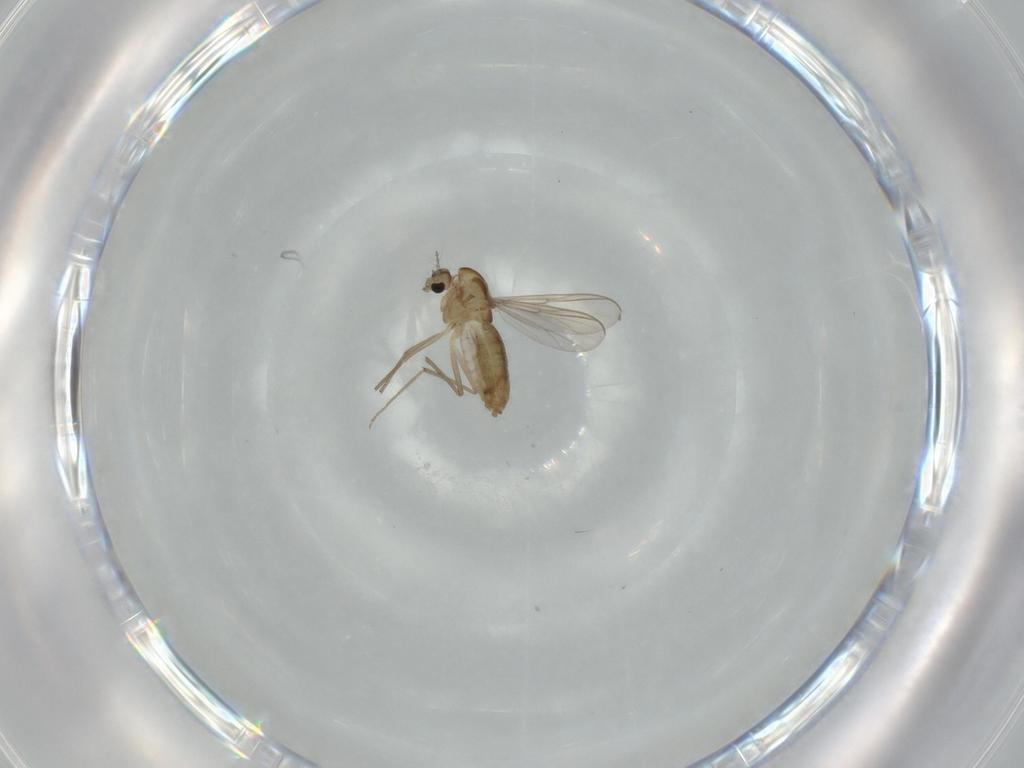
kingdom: Animalia
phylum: Arthropoda
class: Insecta
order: Diptera
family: Chironomidae
